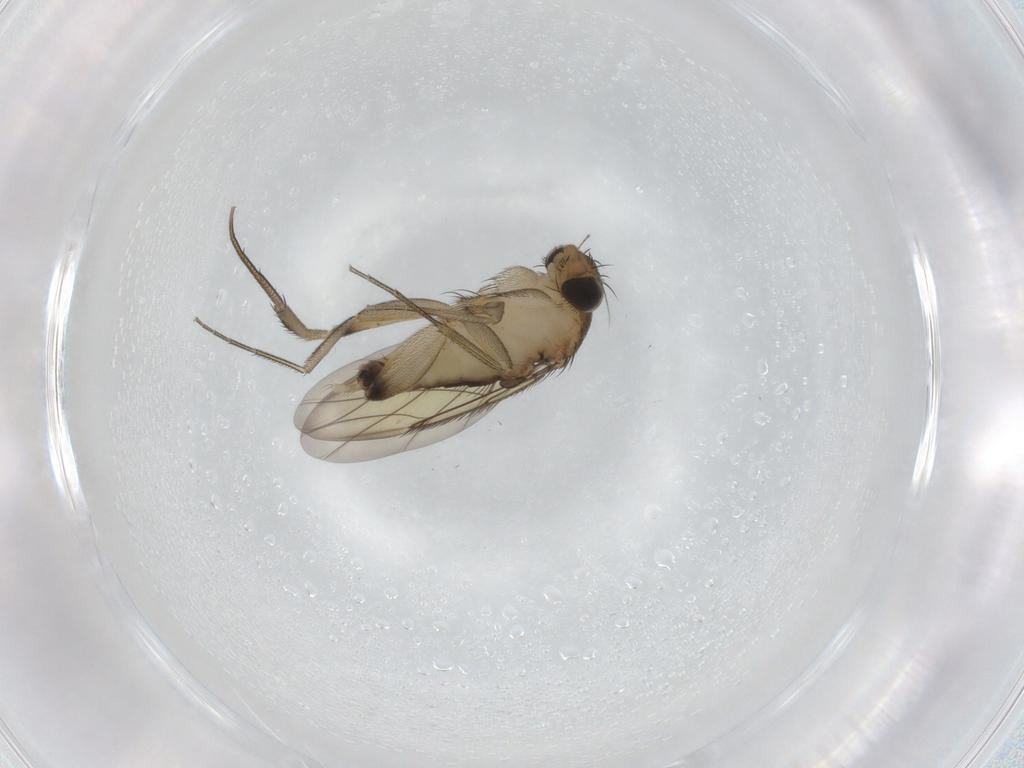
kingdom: Animalia
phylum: Arthropoda
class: Insecta
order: Diptera
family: Phoridae
